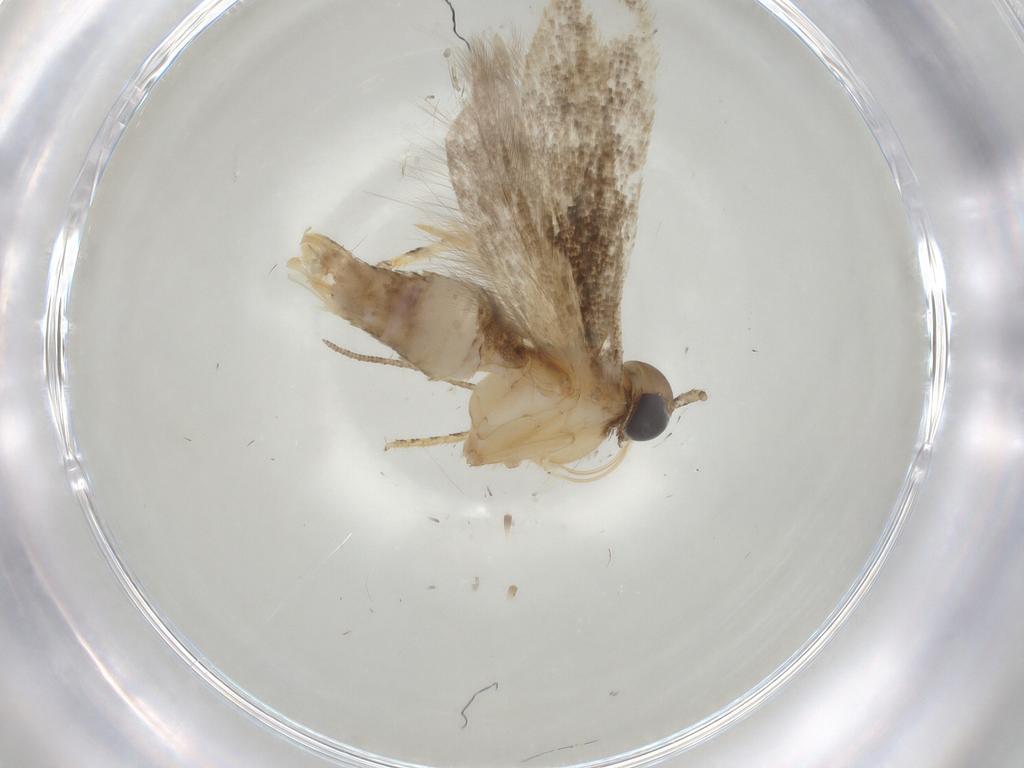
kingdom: Animalia
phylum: Arthropoda
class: Insecta
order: Lepidoptera
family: Gelechiidae
